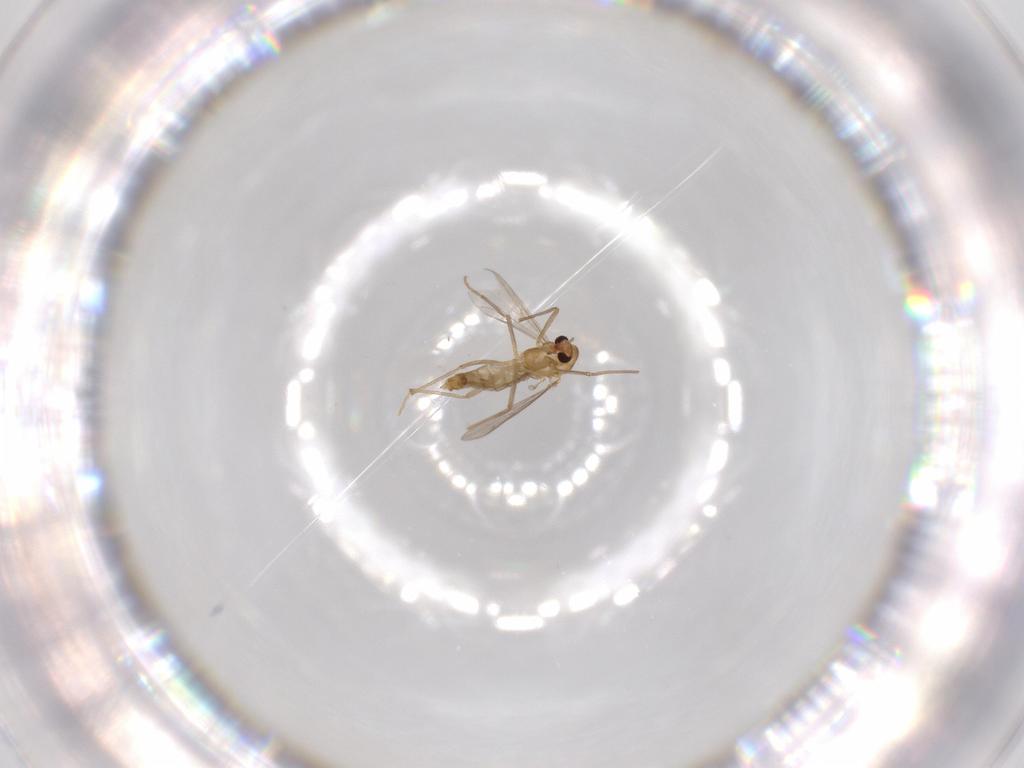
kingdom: Animalia
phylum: Arthropoda
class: Insecta
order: Diptera
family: Chironomidae
